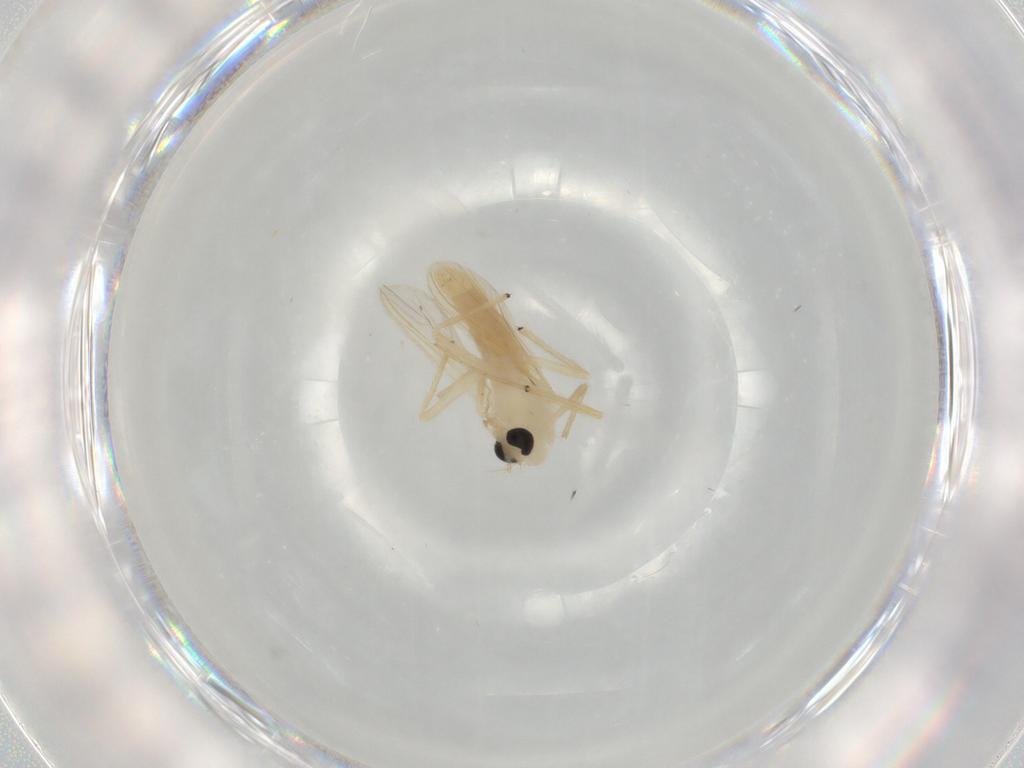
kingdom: Animalia
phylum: Arthropoda
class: Insecta
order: Diptera
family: Chironomidae
